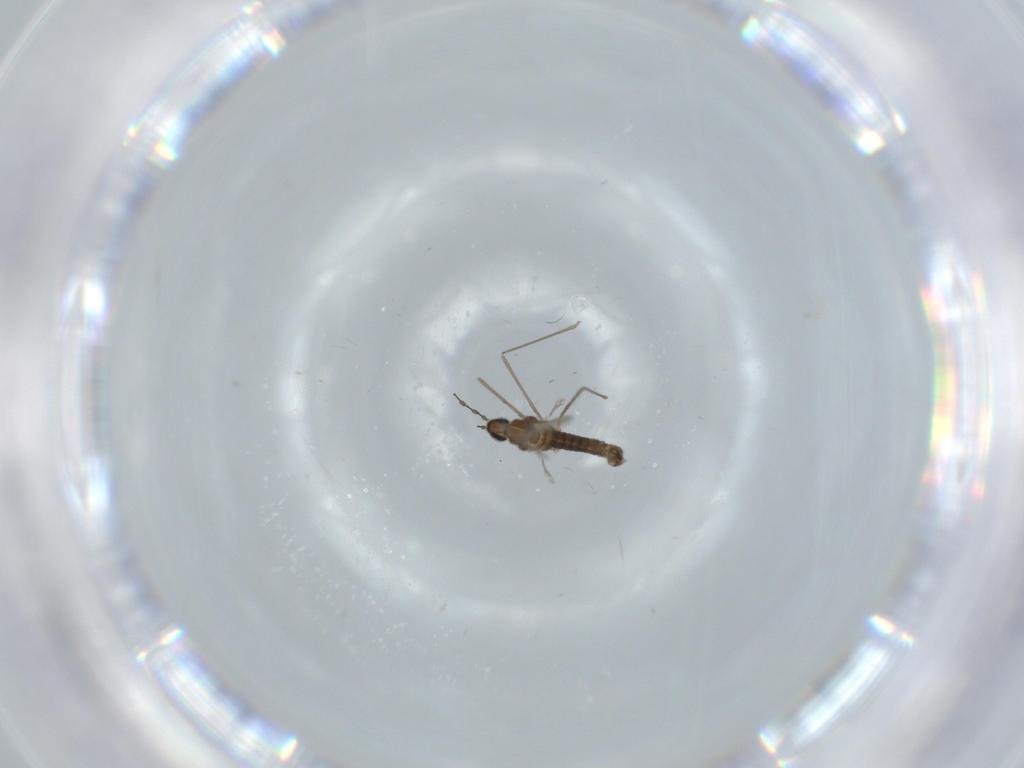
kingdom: Animalia
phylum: Arthropoda
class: Insecta
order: Diptera
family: Cecidomyiidae
